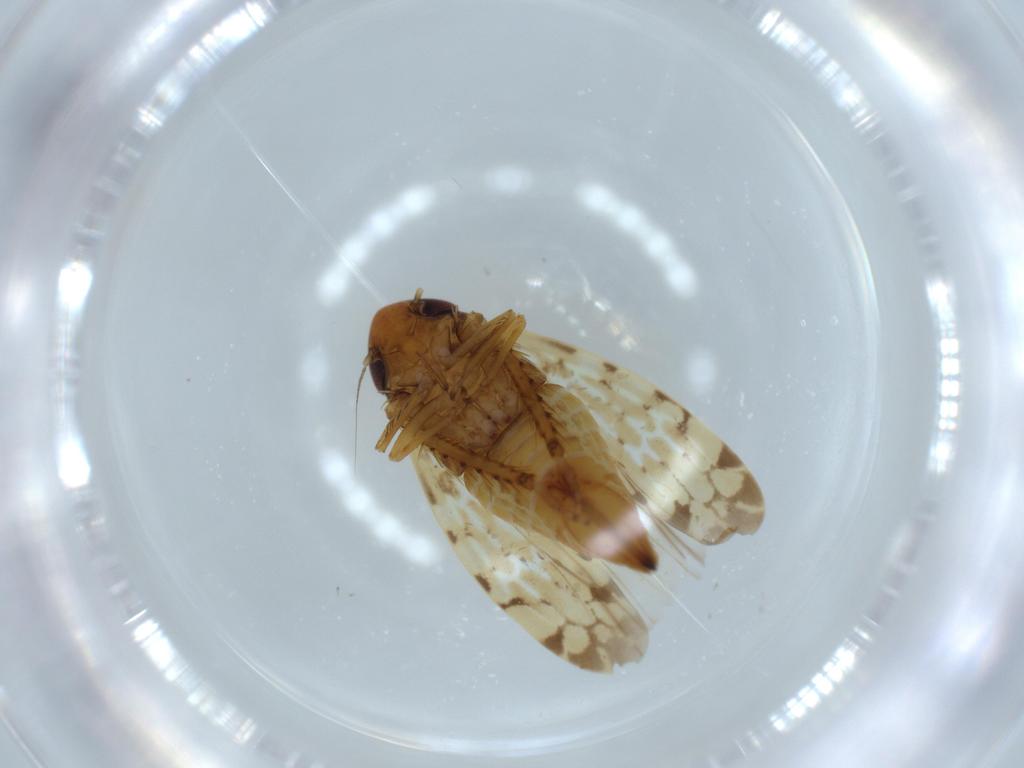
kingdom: Animalia
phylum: Arthropoda
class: Insecta
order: Hemiptera
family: Cicadellidae
